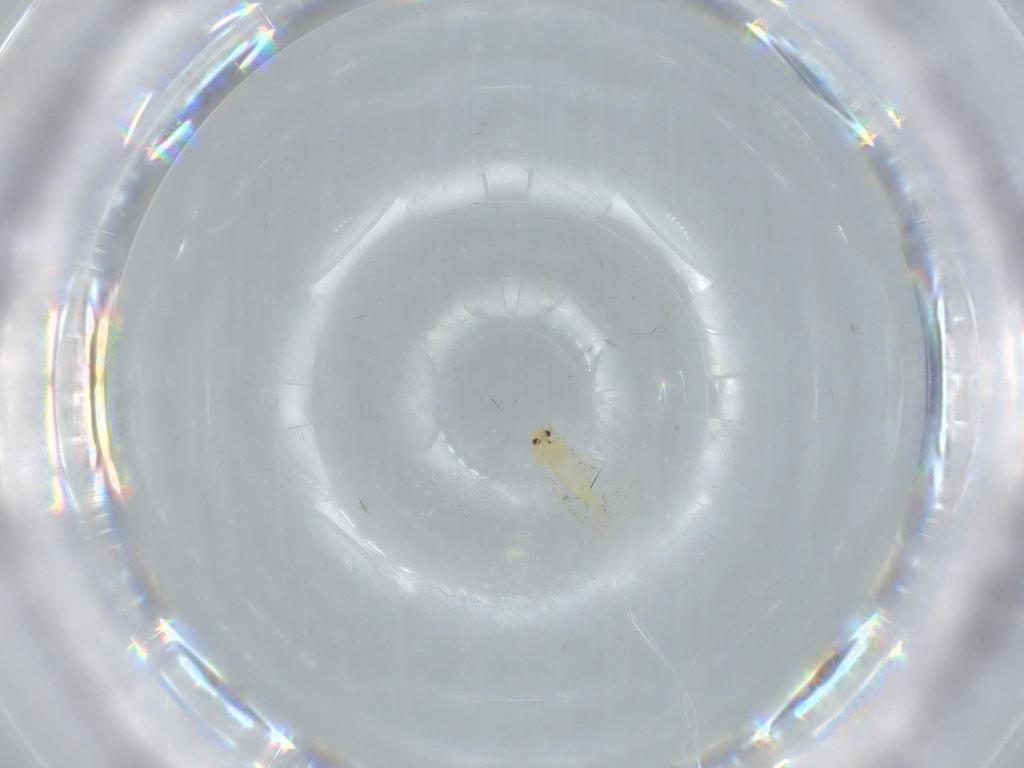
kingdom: Animalia
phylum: Arthropoda
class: Insecta
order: Hemiptera
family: Aleyrodidae
